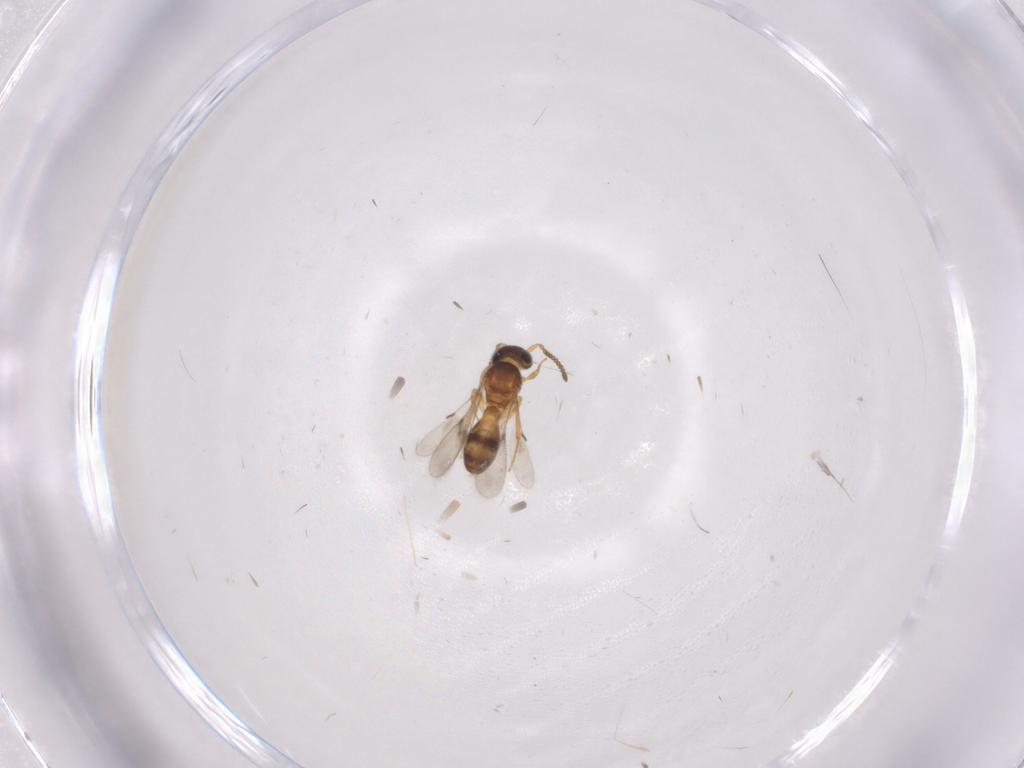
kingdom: Animalia
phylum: Arthropoda
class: Insecta
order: Hymenoptera
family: Scelionidae
